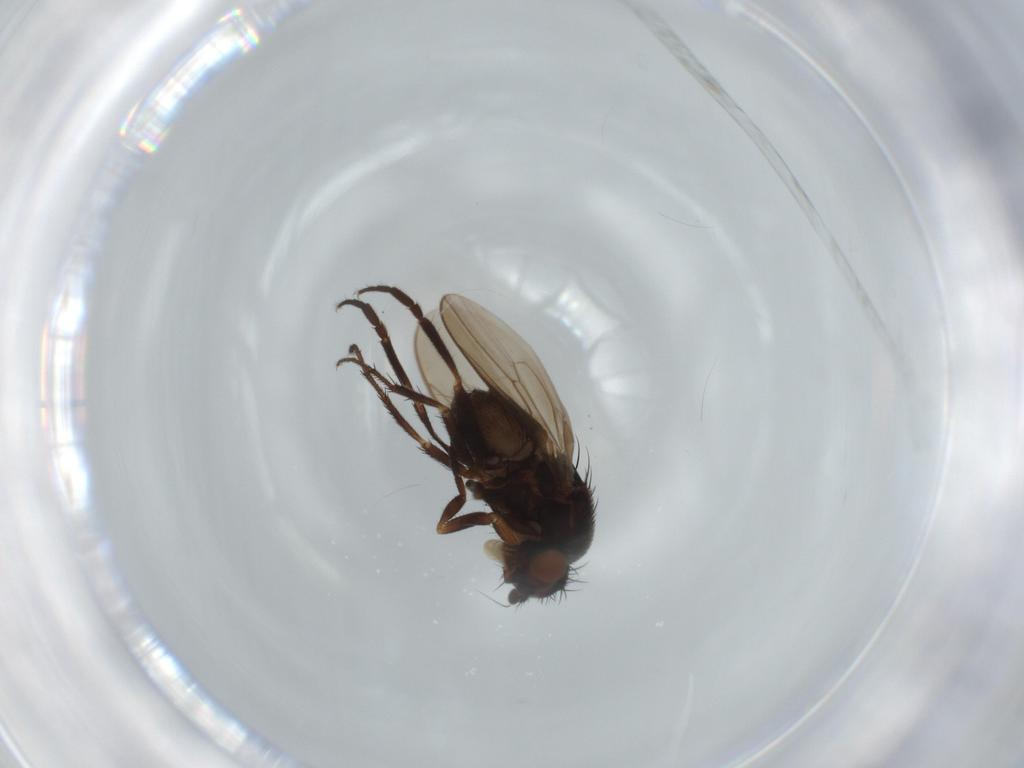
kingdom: Animalia
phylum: Arthropoda
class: Insecta
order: Diptera
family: Sphaeroceridae
